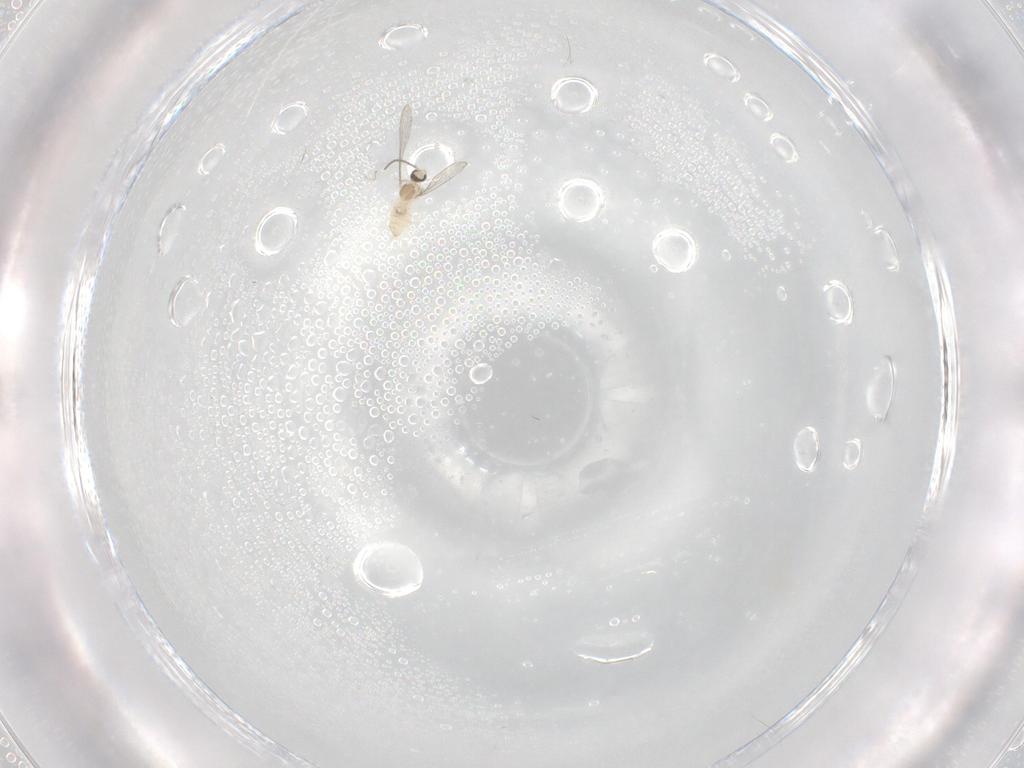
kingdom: Animalia
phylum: Arthropoda
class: Insecta
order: Diptera
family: Cecidomyiidae
